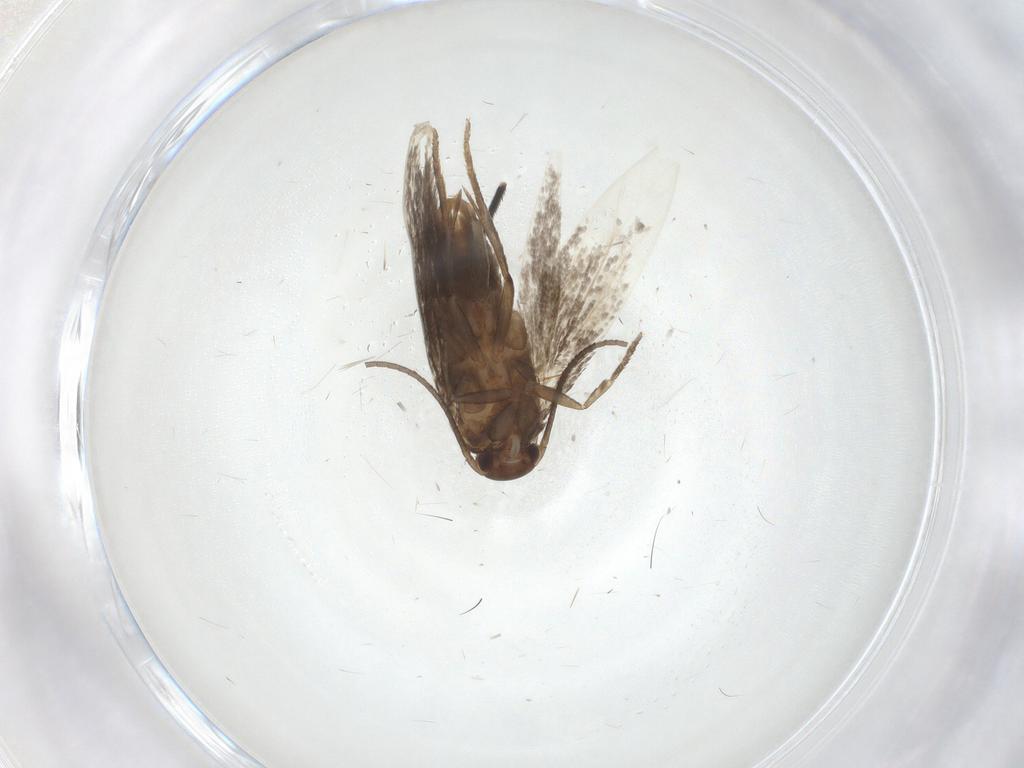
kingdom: Animalia
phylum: Arthropoda
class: Insecta
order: Lepidoptera
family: Elachistidae
